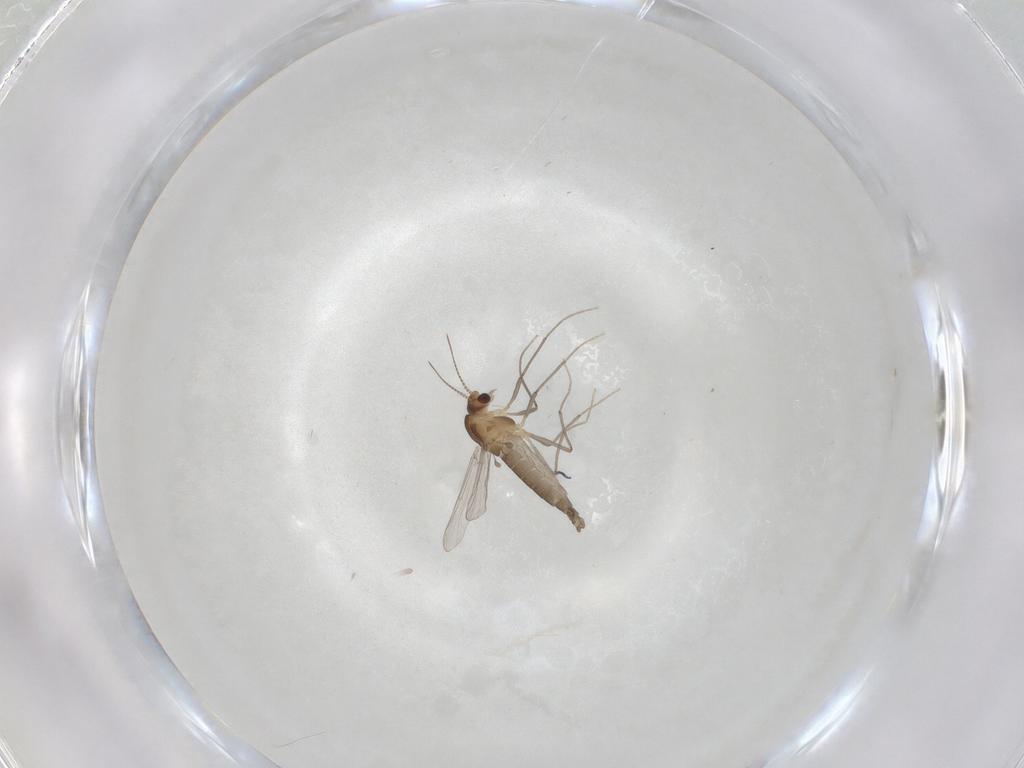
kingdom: Animalia
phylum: Arthropoda
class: Insecta
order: Diptera
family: Chironomidae
